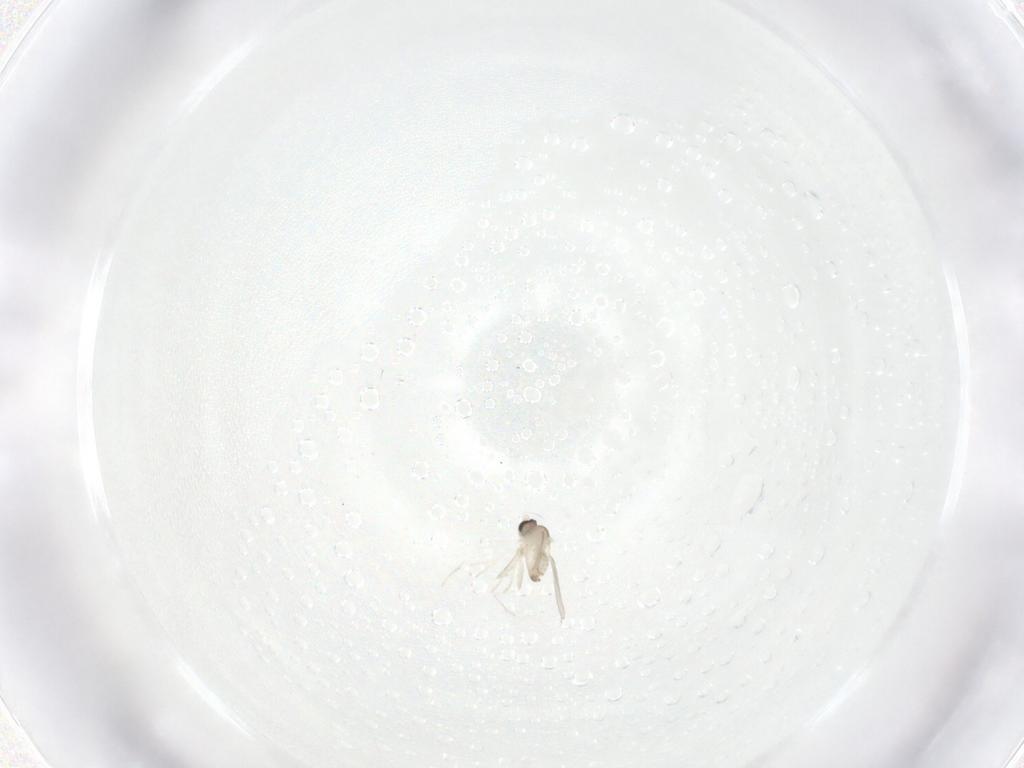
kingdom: Animalia
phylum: Arthropoda
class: Insecta
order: Diptera
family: Cecidomyiidae
